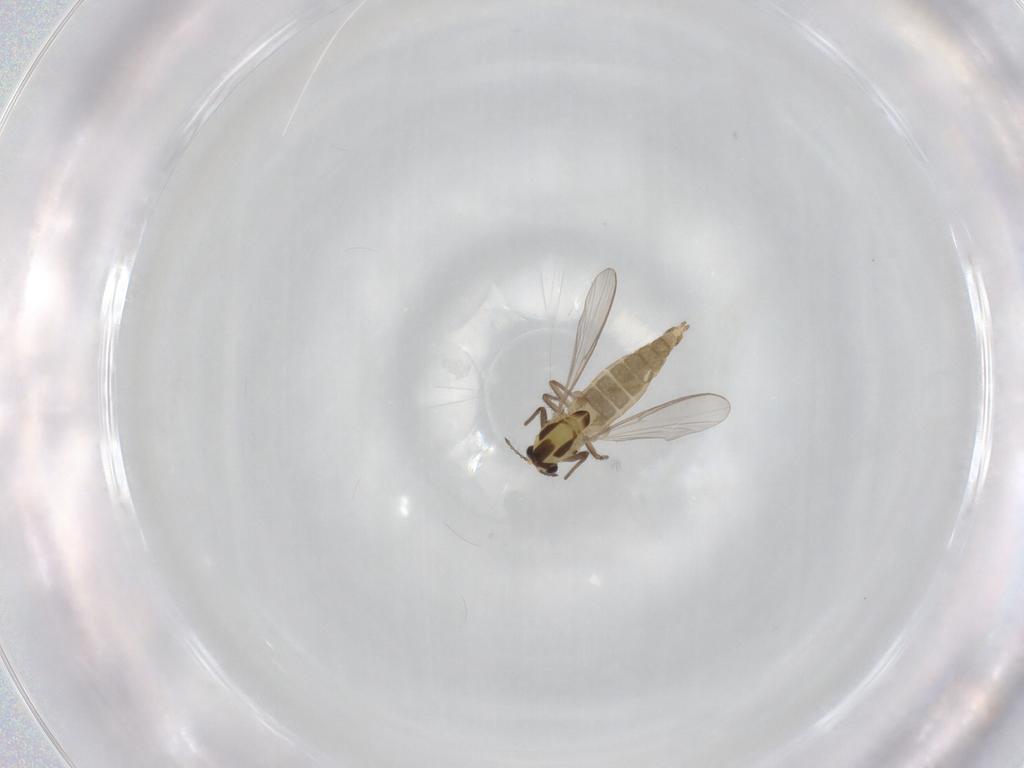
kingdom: Animalia
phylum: Arthropoda
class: Insecta
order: Diptera
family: Chironomidae
